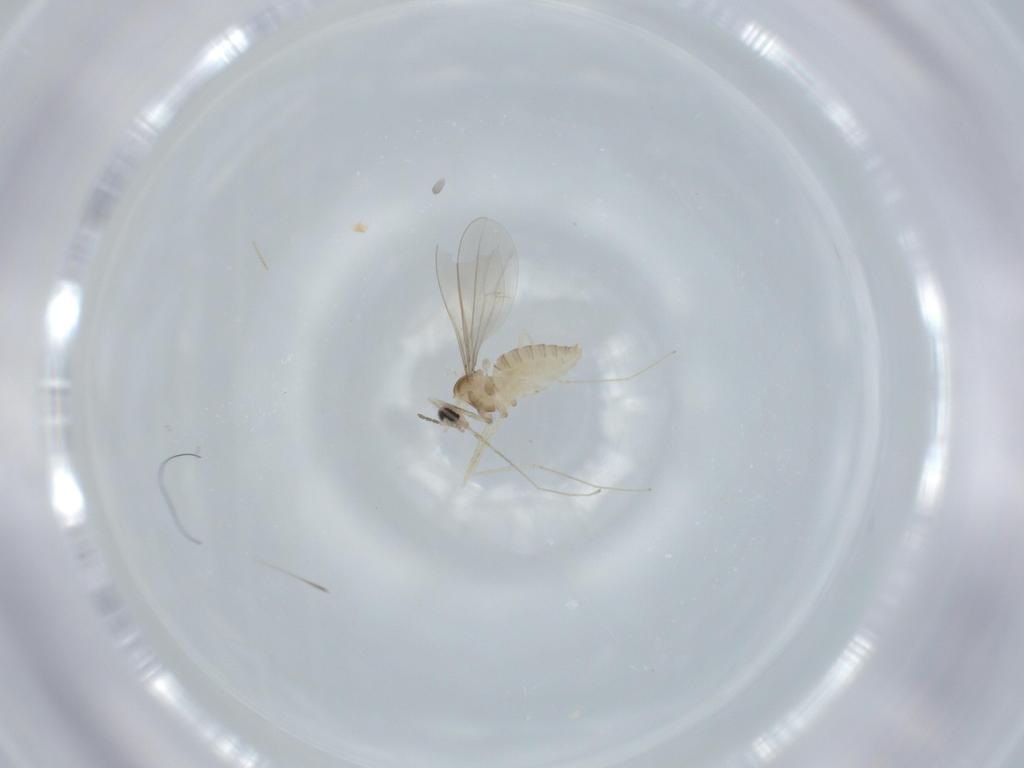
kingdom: Animalia
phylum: Arthropoda
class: Insecta
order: Diptera
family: Cecidomyiidae
